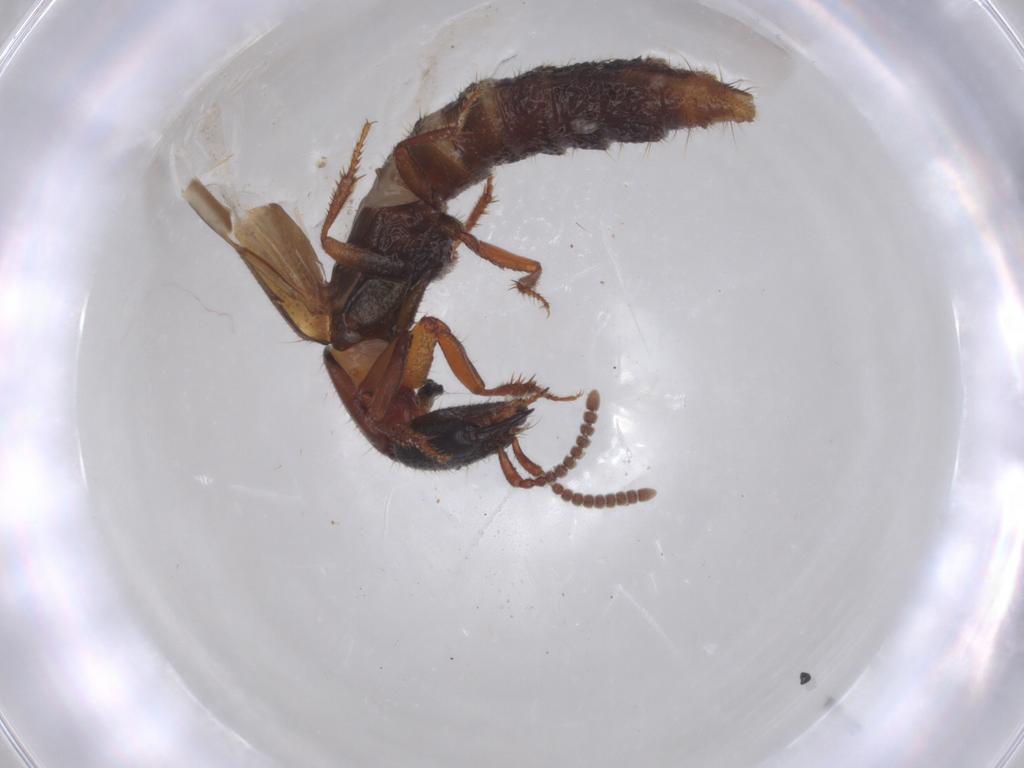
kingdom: Animalia
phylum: Arthropoda
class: Insecta
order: Coleoptera
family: Staphylinidae
